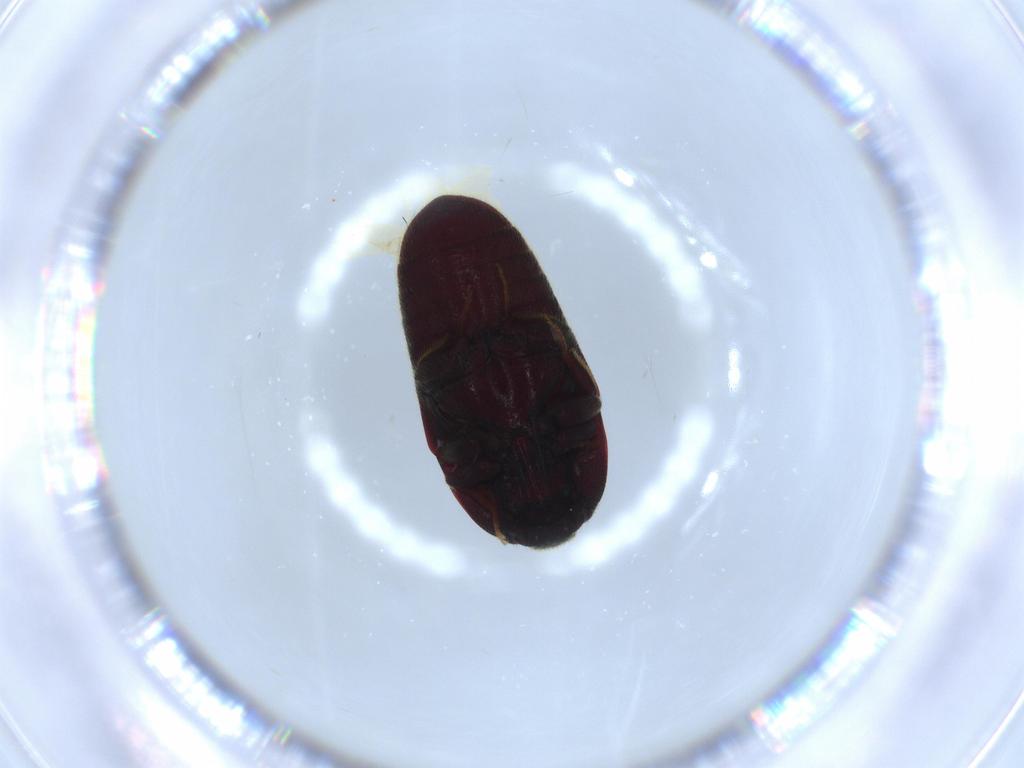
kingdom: Animalia
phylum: Arthropoda
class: Insecta
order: Coleoptera
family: Throscidae
